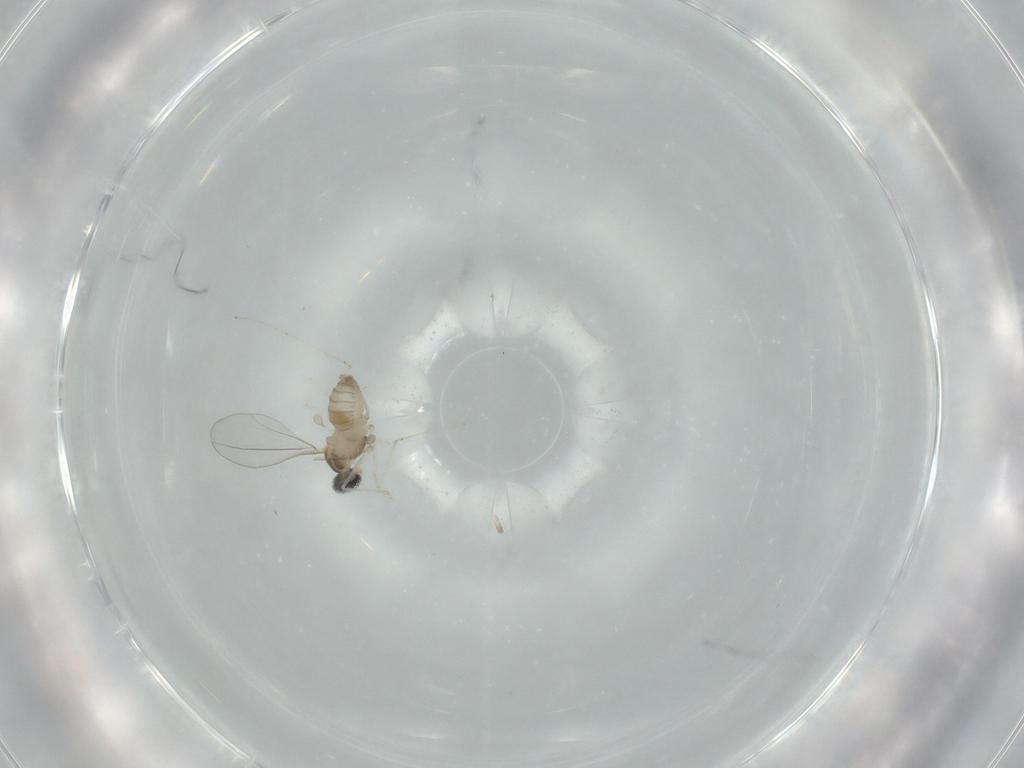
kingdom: Animalia
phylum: Arthropoda
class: Insecta
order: Diptera
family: Cecidomyiidae
